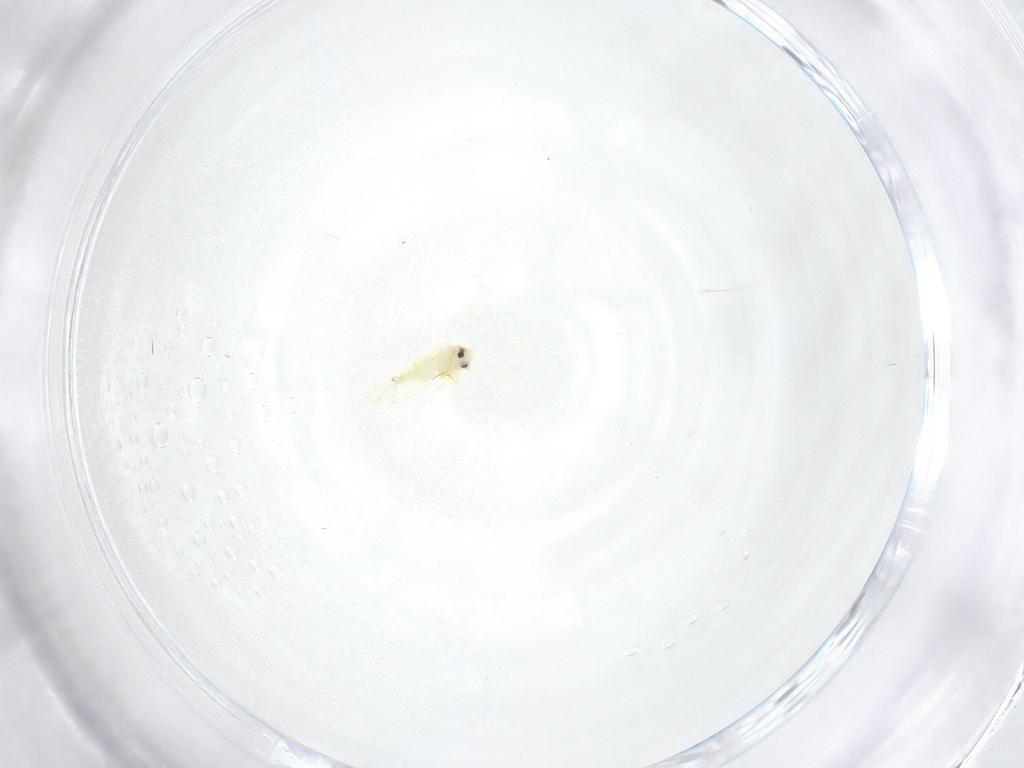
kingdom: Animalia
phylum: Arthropoda
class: Insecta
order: Hemiptera
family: Aleyrodidae
